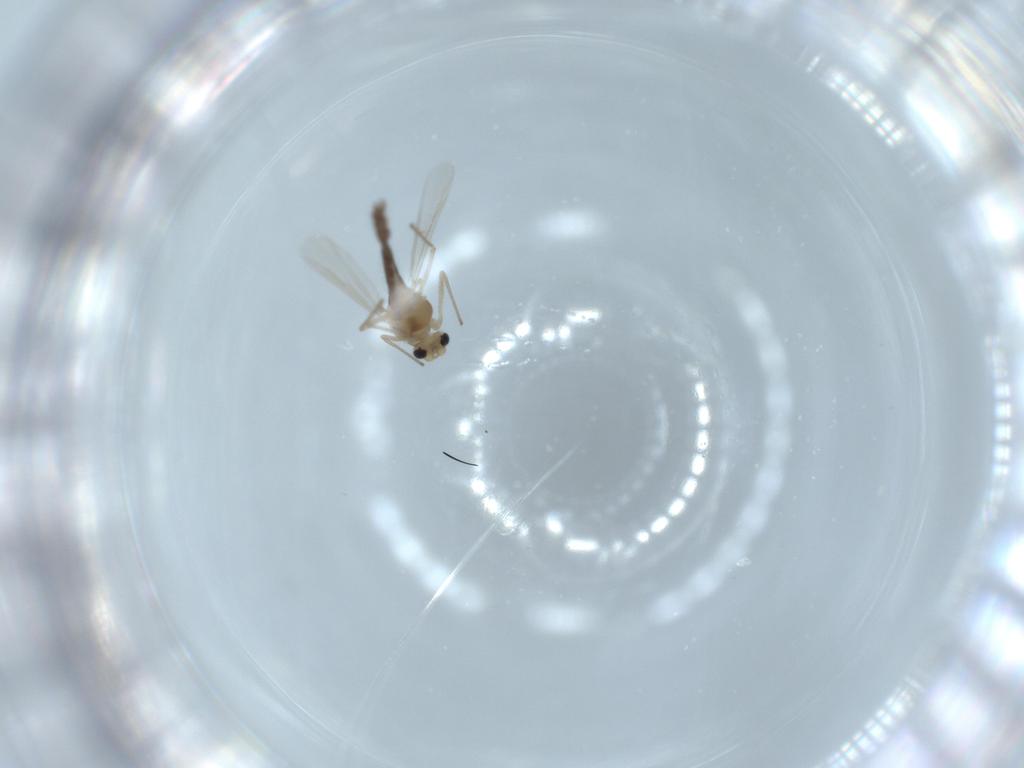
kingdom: Animalia
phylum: Arthropoda
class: Insecta
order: Diptera
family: Chironomidae
